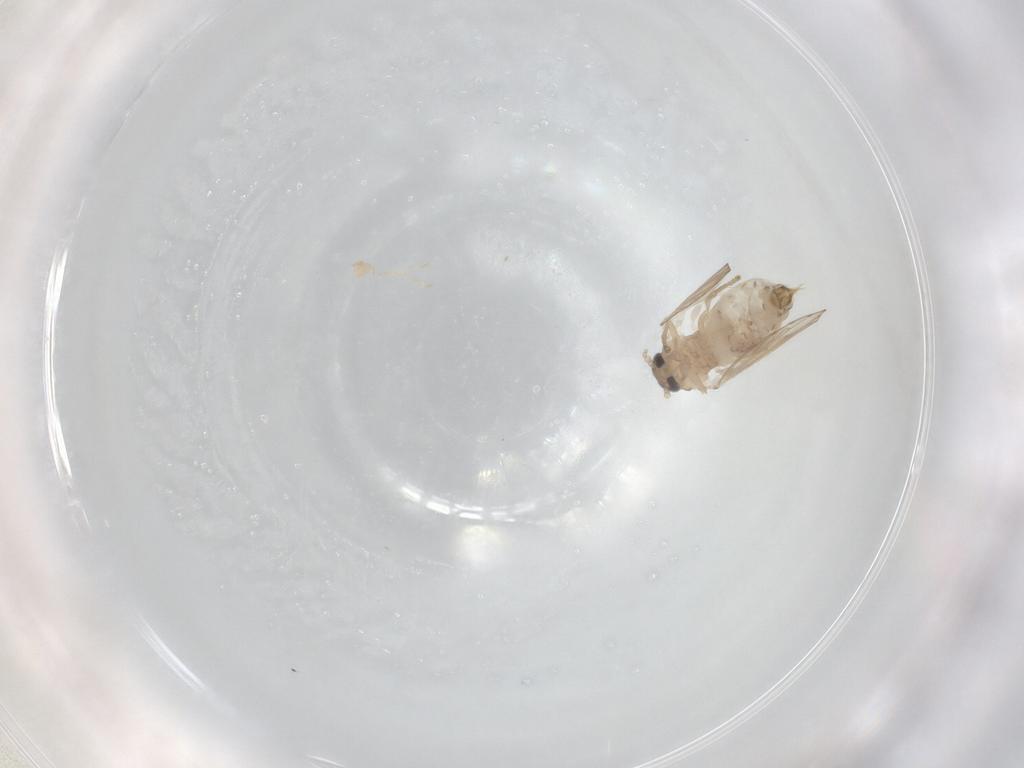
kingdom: Animalia
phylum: Arthropoda
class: Insecta
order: Diptera
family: Psychodidae
